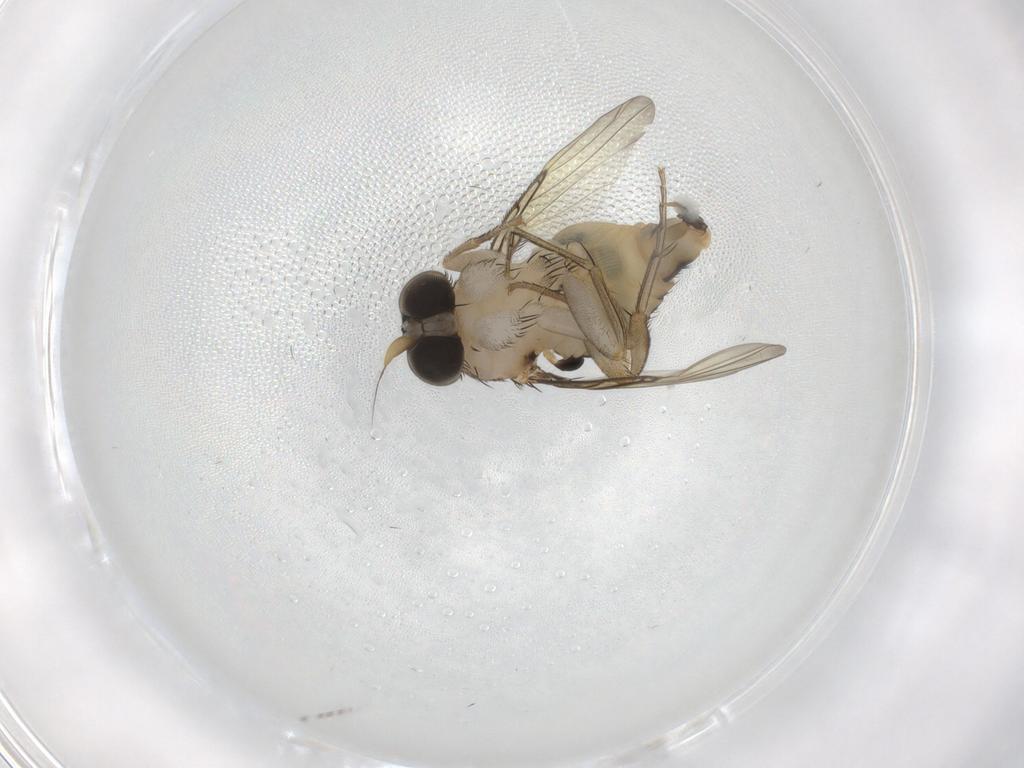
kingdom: Animalia
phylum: Arthropoda
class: Insecta
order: Diptera
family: Phoridae
